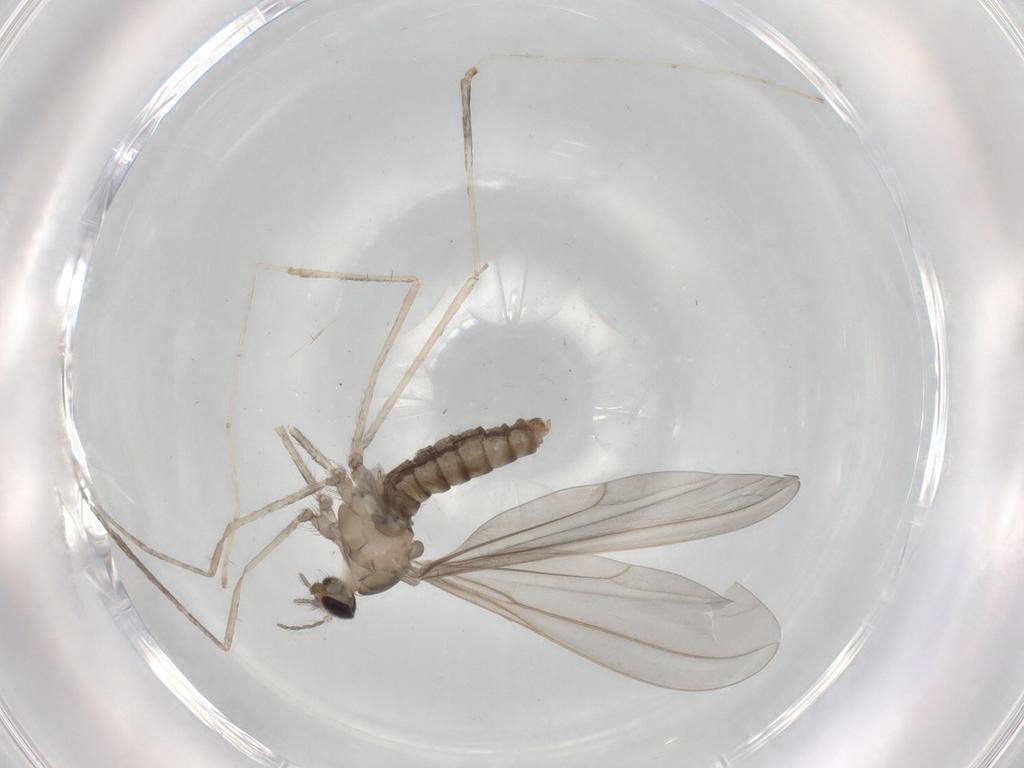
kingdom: Animalia
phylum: Arthropoda
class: Insecta
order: Diptera
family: Cecidomyiidae
